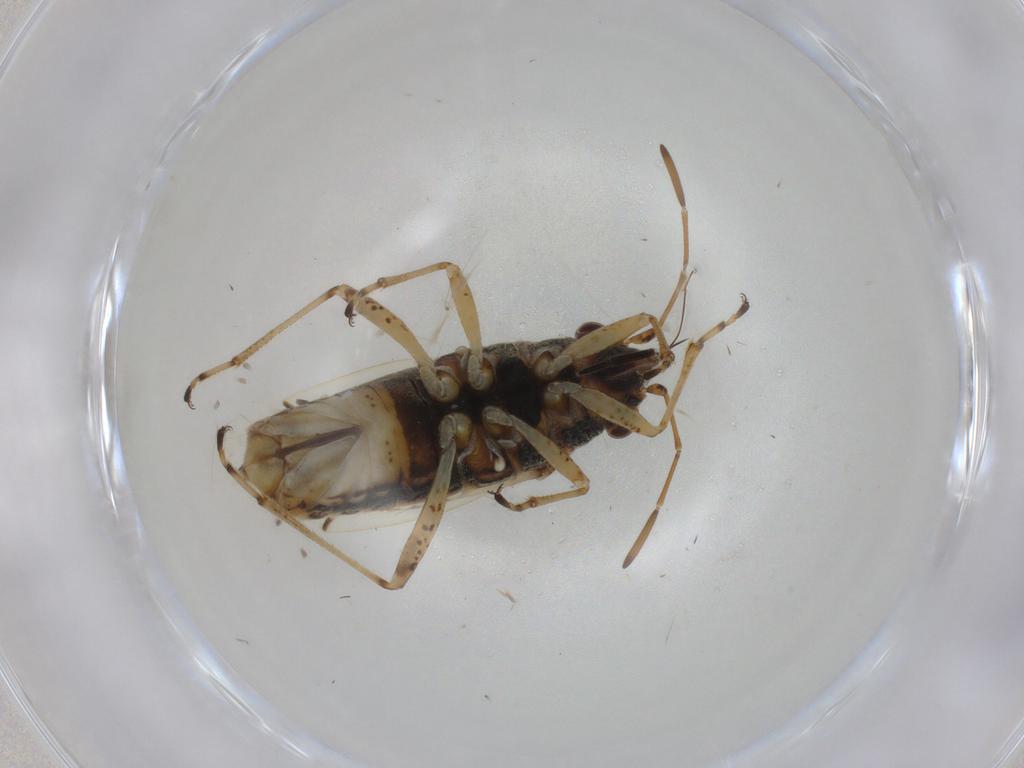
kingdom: Animalia
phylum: Arthropoda
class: Insecta
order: Hemiptera
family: Lygaeidae
